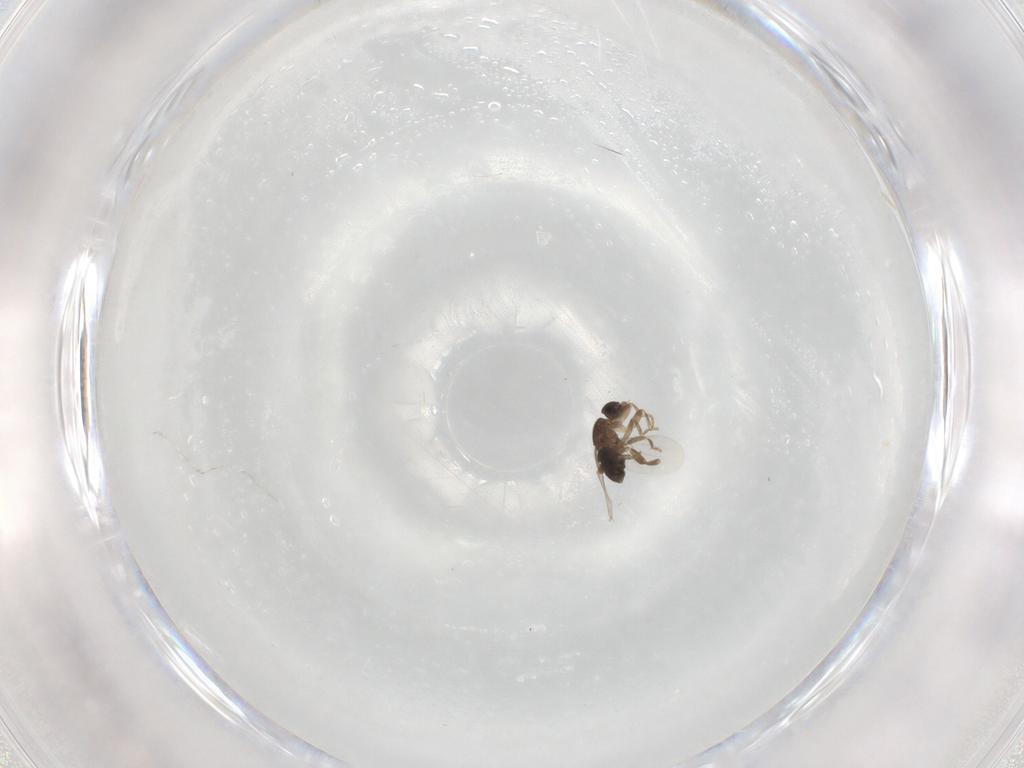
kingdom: Animalia
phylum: Arthropoda
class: Insecta
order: Diptera
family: Phoridae
